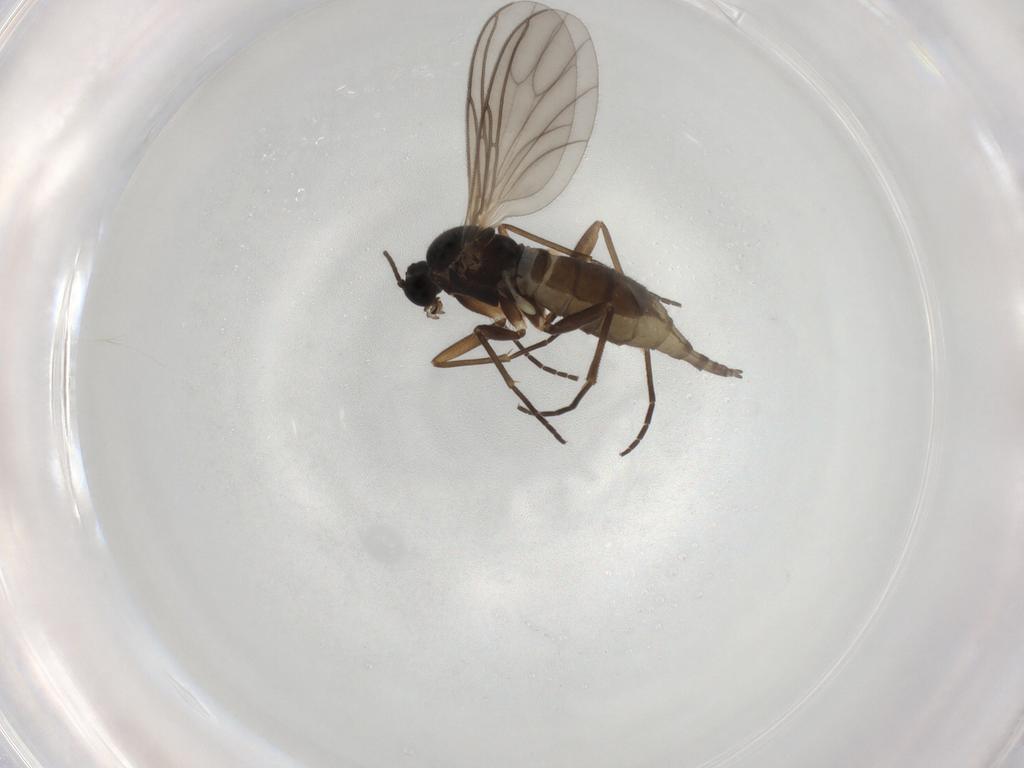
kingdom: Animalia
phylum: Arthropoda
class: Insecta
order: Diptera
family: Sciaridae
